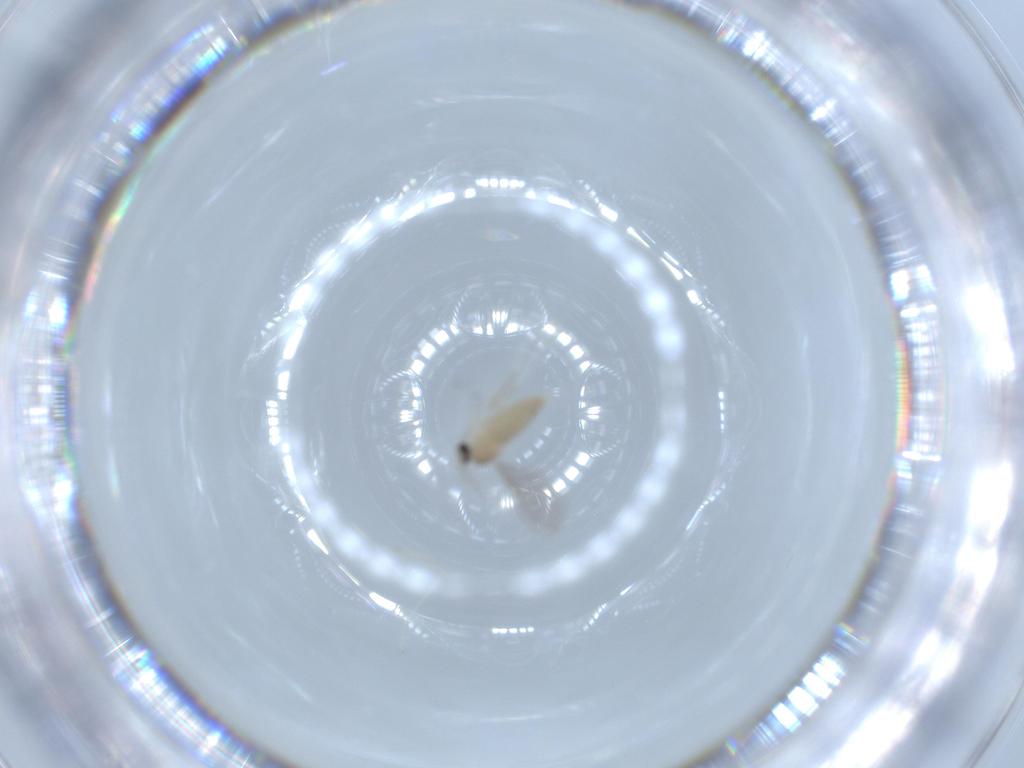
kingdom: Animalia
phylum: Arthropoda
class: Insecta
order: Diptera
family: Cecidomyiidae
